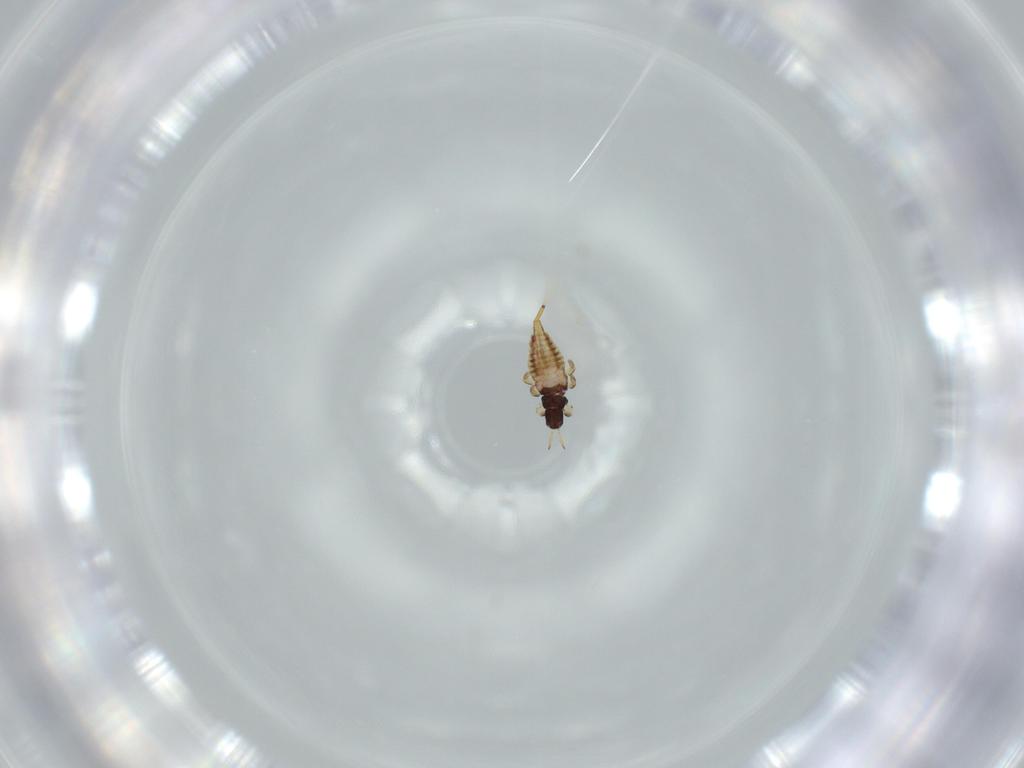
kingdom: Animalia
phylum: Arthropoda
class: Insecta
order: Thysanoptera
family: Phlaeothripidae
